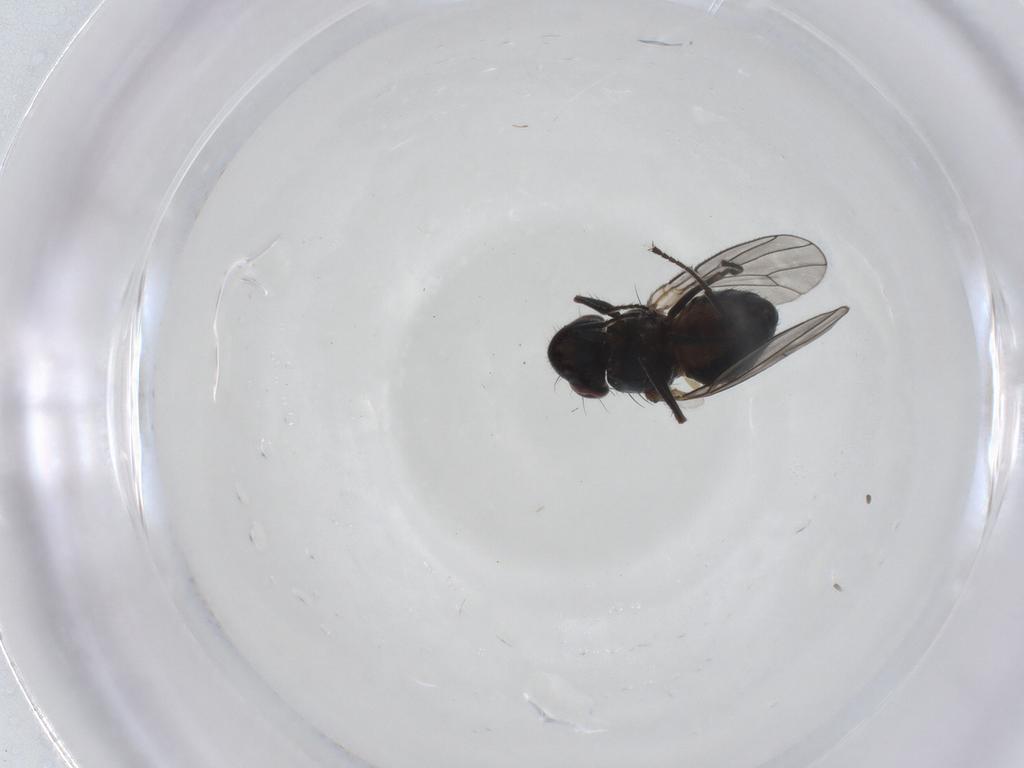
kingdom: Animalia
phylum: Arthropoda
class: Insecta
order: Diptera
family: Ephydridae
